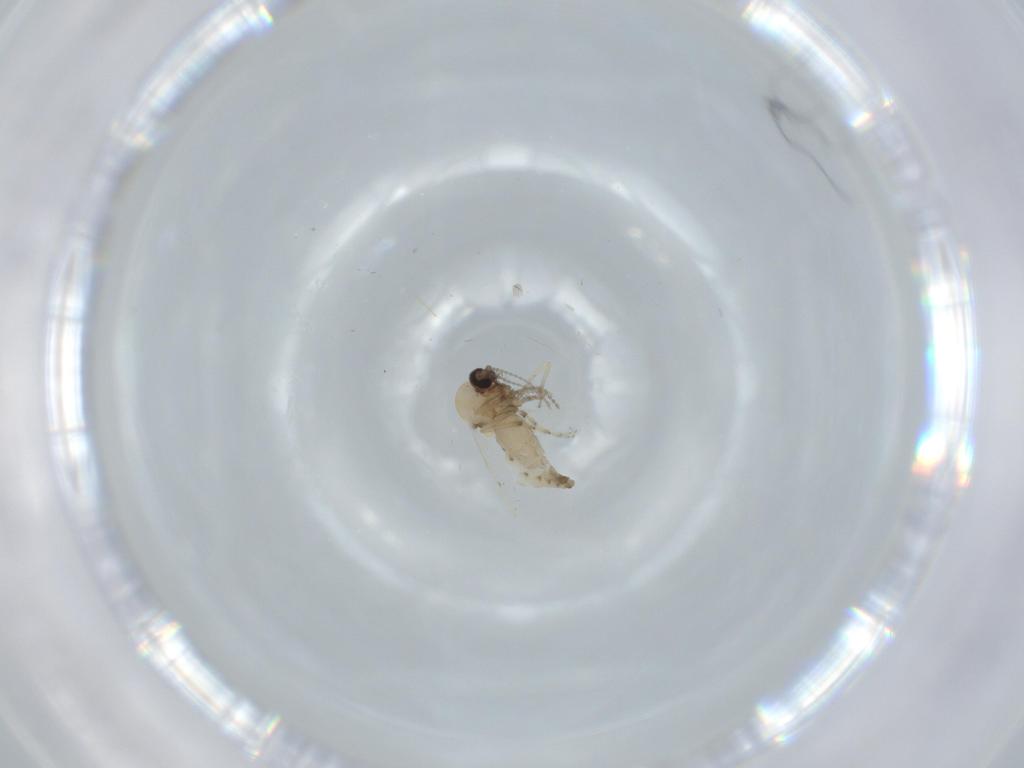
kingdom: Animalia
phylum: Arthropoda
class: Insecta
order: Diptera
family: Ceratopogonidae
